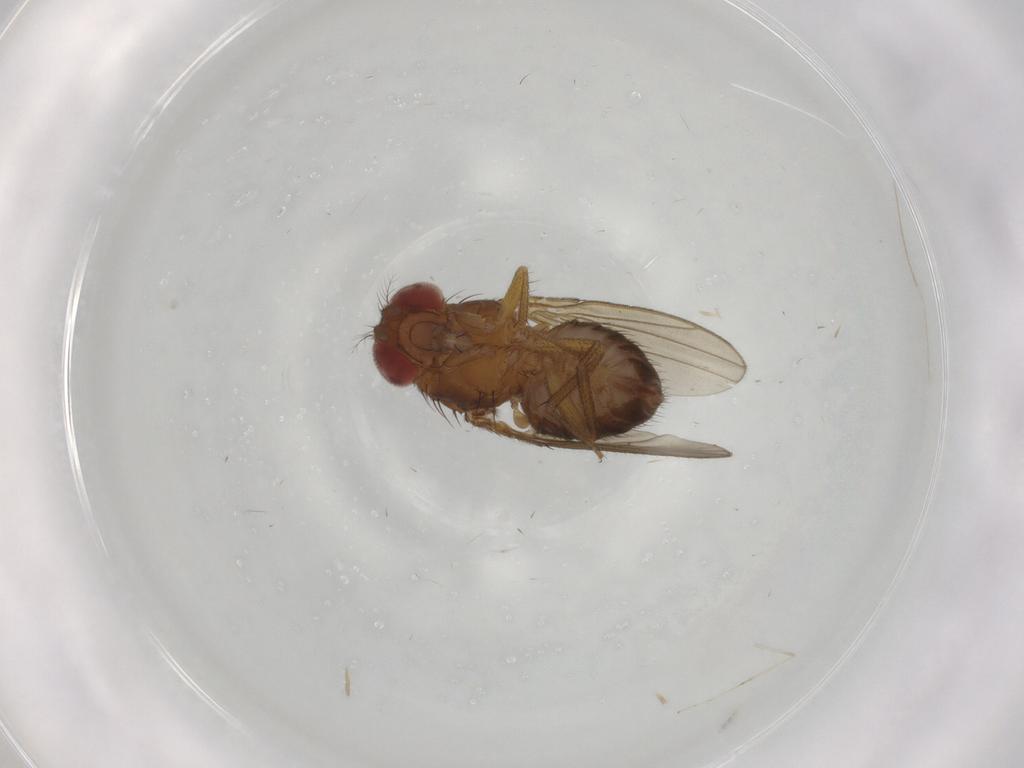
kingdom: Animalia
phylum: Arthropoda
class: Insecta
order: Diptera
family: Drosophilidae
